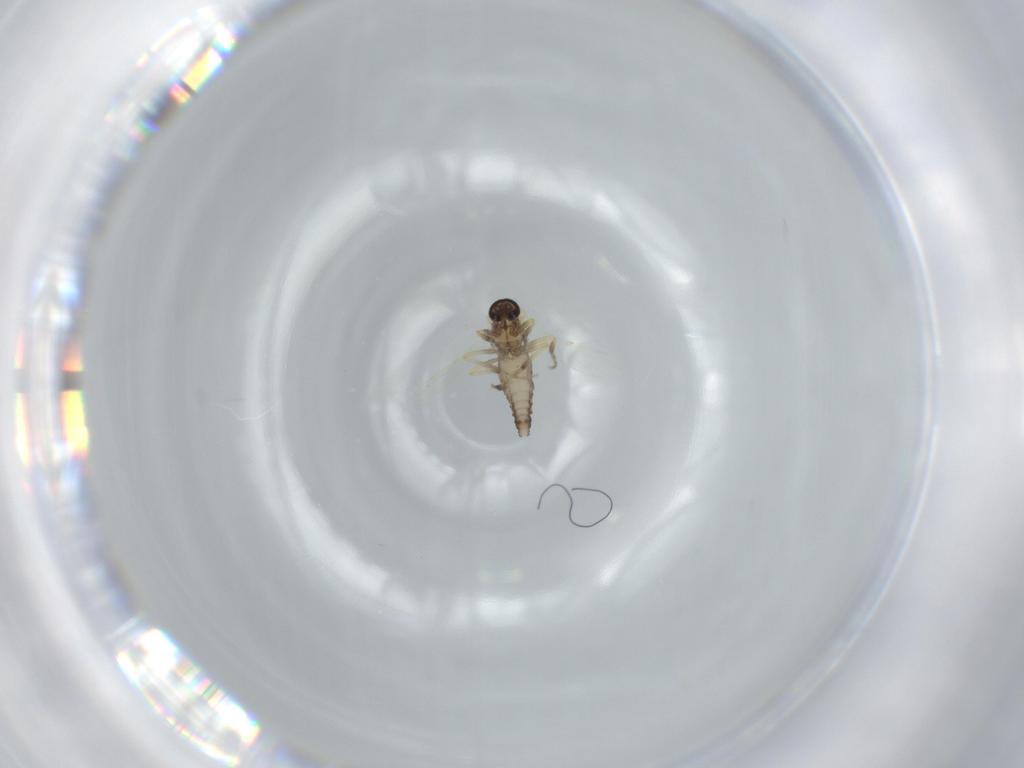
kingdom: Animalia
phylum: Arthropoda
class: Insecta
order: Diptera
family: Ceratopogonidae
